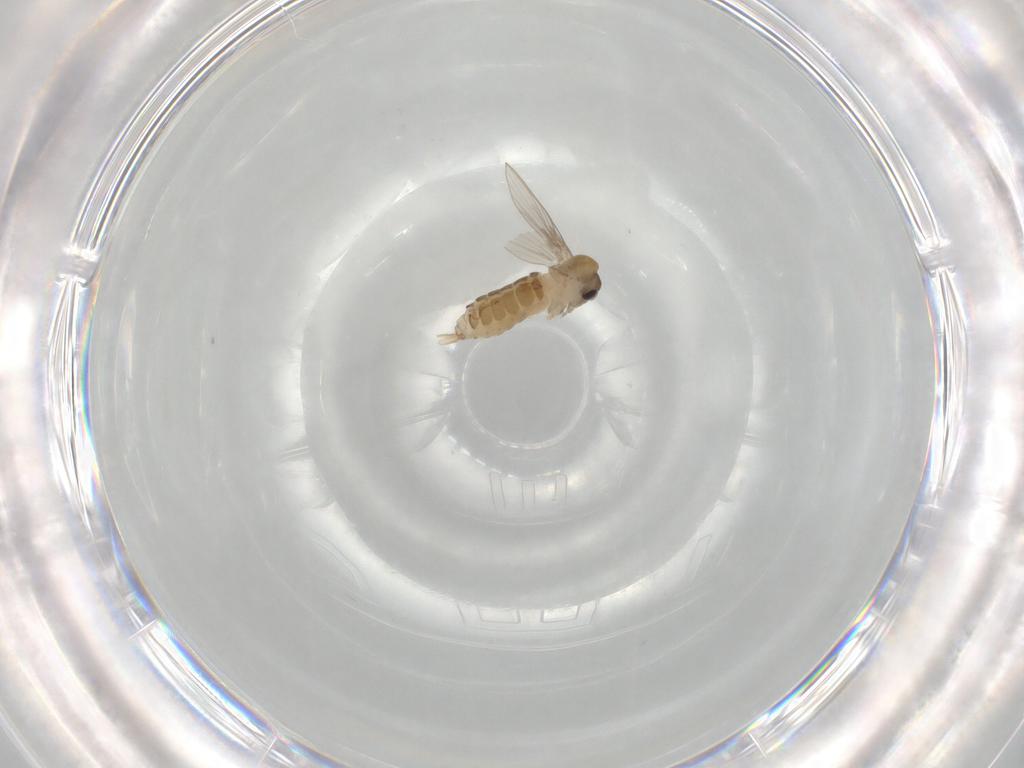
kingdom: Animalia
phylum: Arthropoda
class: Insecta
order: Diptera
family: Psychodidae
